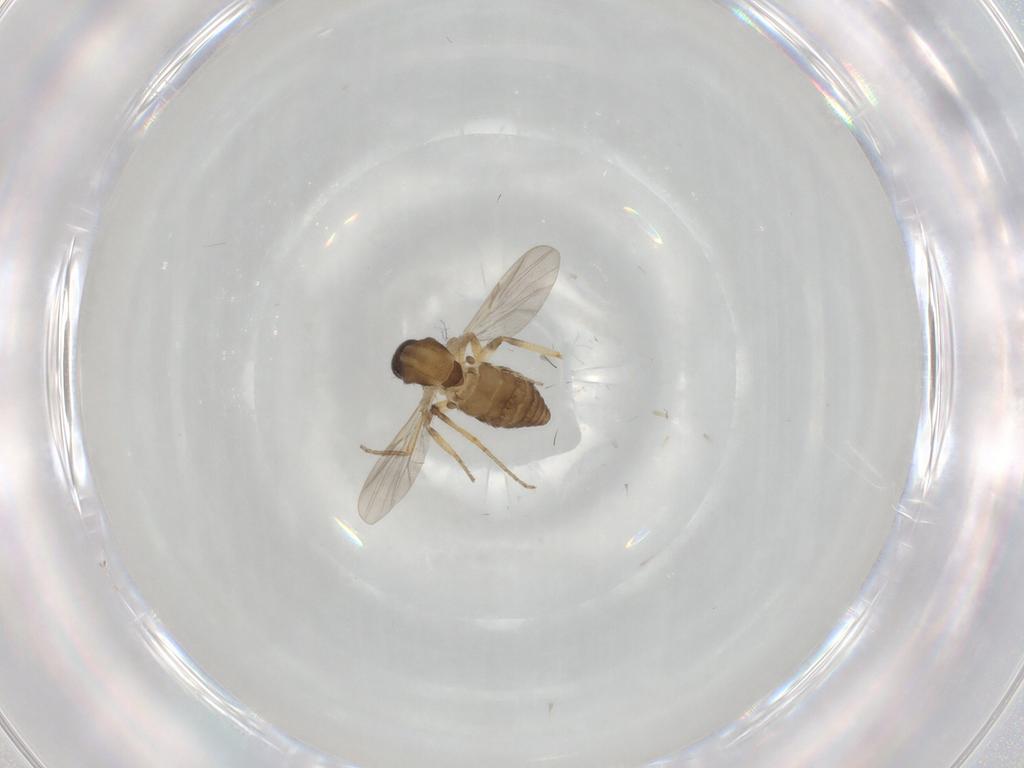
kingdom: Animalia
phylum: Arthropoda
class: Insecta
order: Diptera
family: Ceratopogonidae
